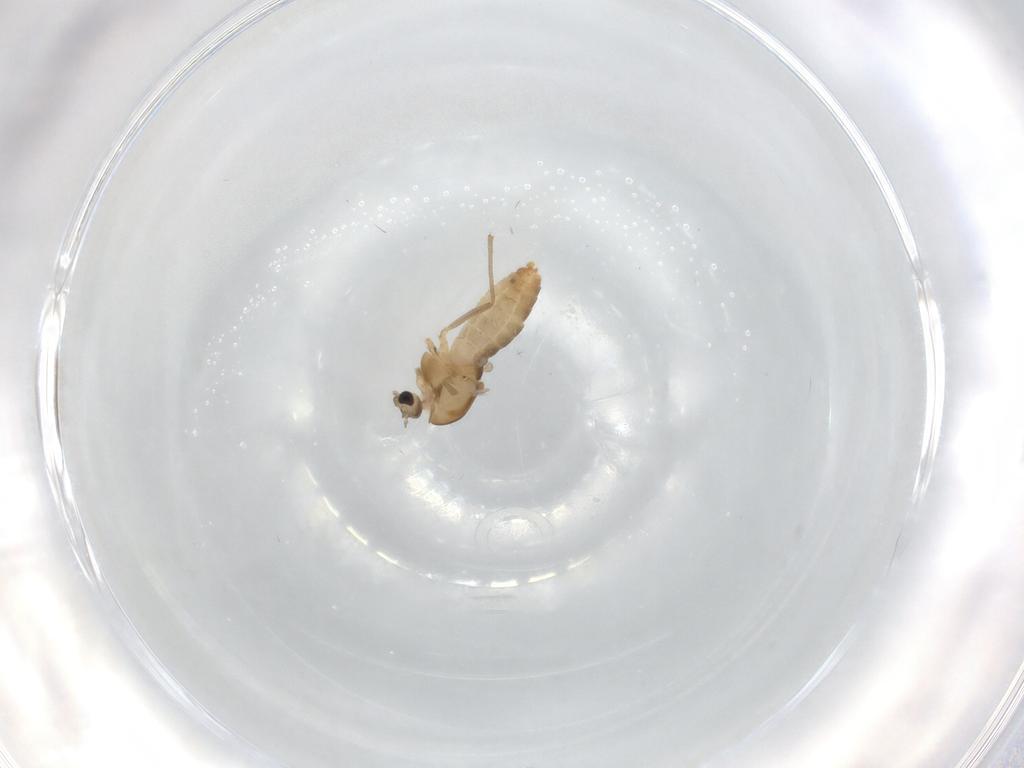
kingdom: Animalia
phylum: Arthropoda
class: Insecta
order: Diptera
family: Chironomidae
